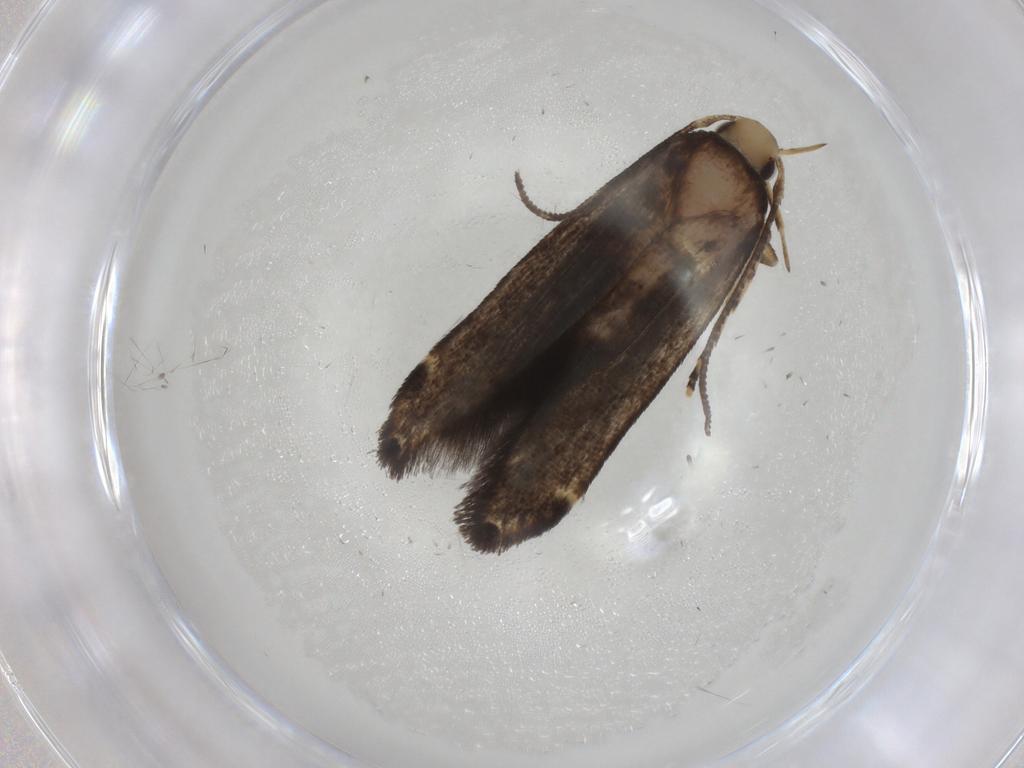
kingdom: Animalia
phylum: Arthropoda
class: Insecta
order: Lepidoptera
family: Cosmopterigidae
